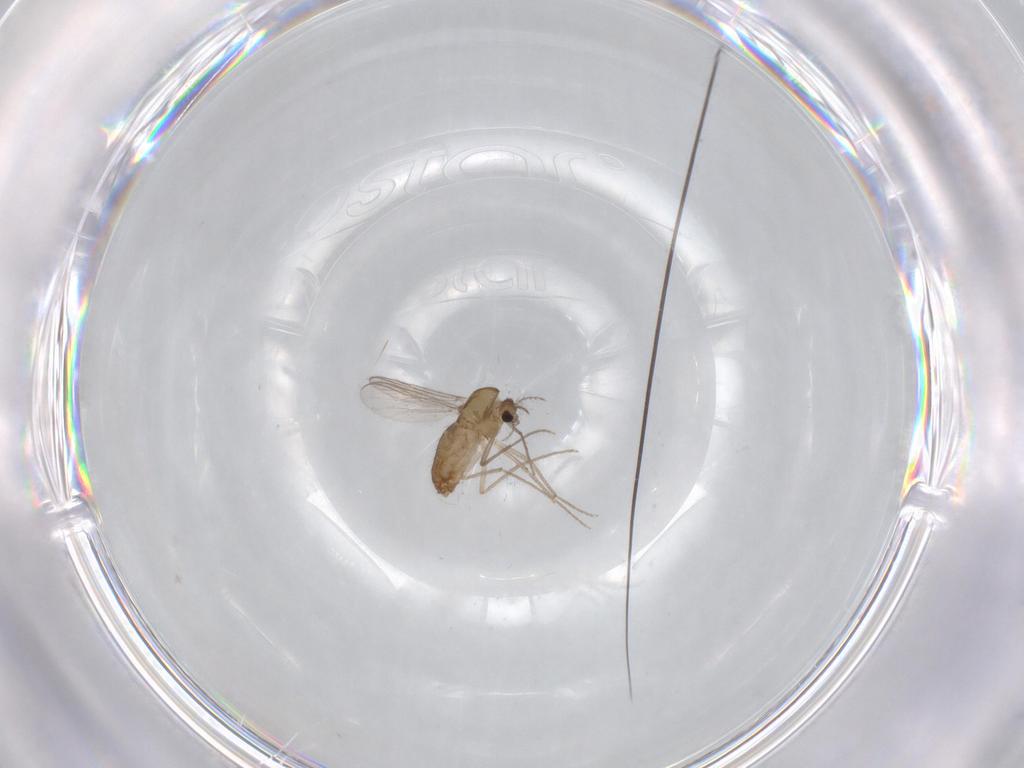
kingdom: Animalia
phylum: Arthropoda
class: Insecta
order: Diptera
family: Chironomidae
